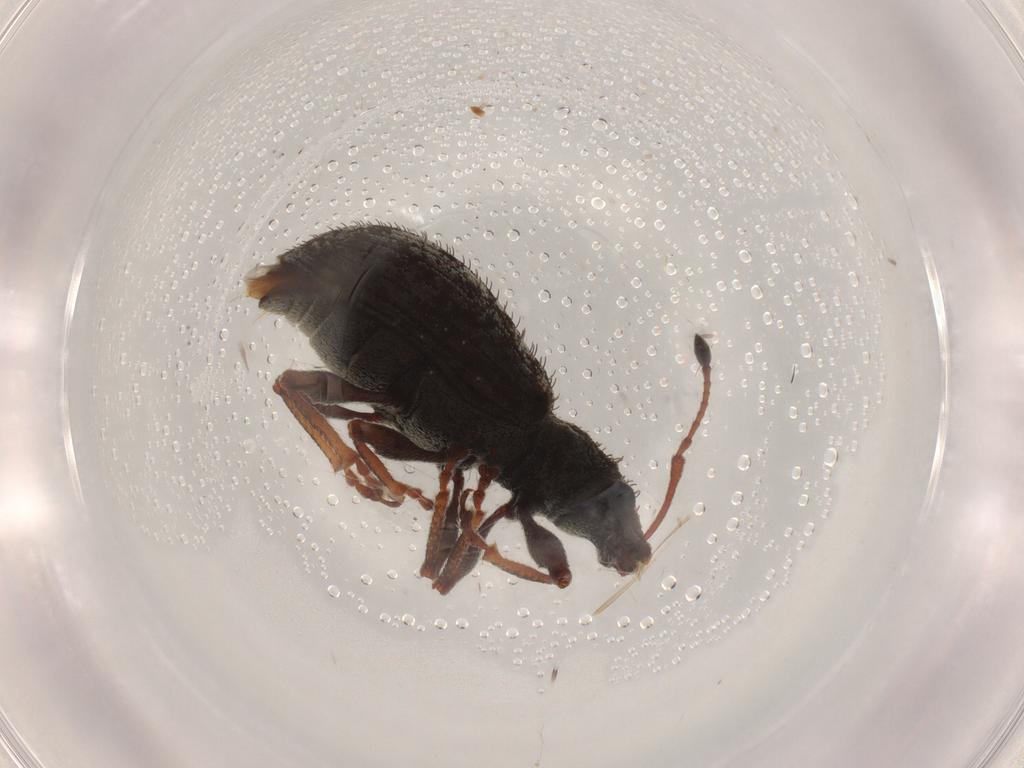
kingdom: Animalia
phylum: Arthropoda
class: Insecta
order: Coleoptera
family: Curculionidae
